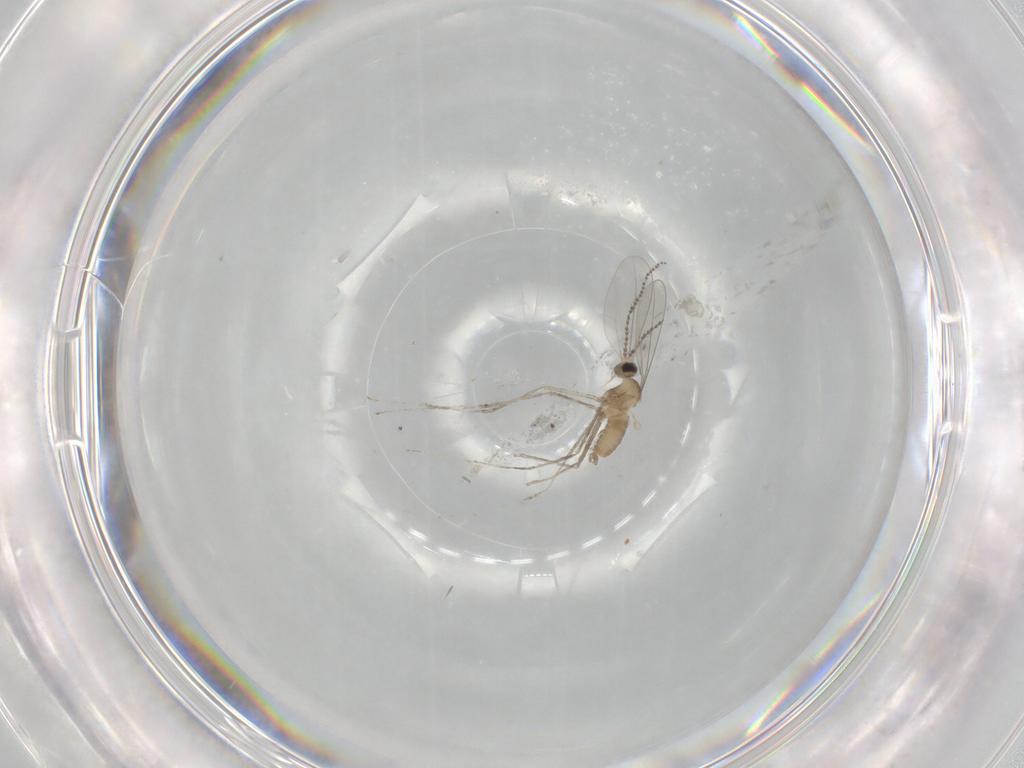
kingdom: Animalia
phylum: Arthropoda
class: Insecta
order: Diptera
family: Cecidomyiidae
